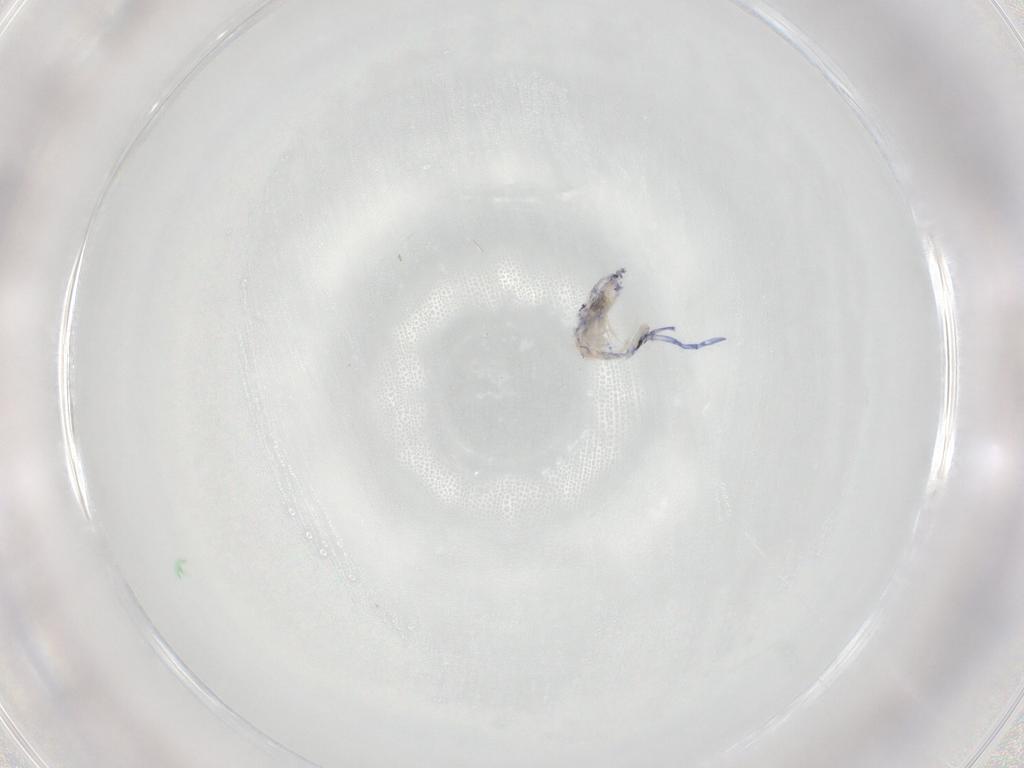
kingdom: Animalia
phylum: Arthropoda
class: Collembola
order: Entomobryomorpha
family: Entomobryidae
